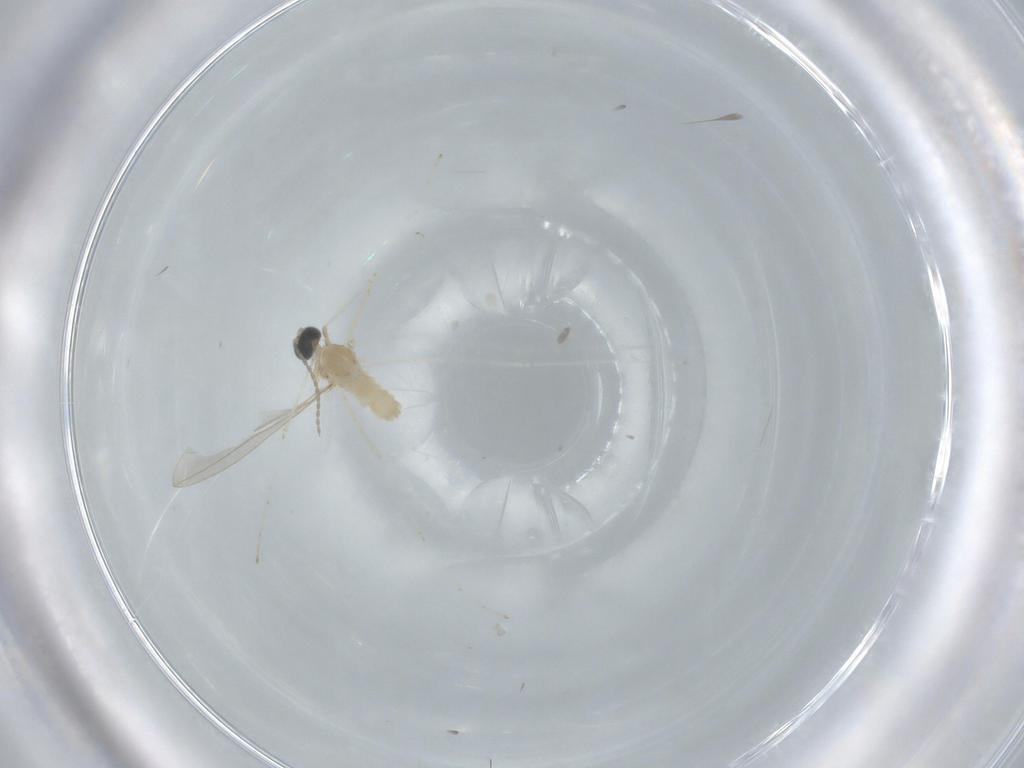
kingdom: Animalia
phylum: Arthropoda
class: Insecta
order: Diptera
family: Cecidomyiidae
